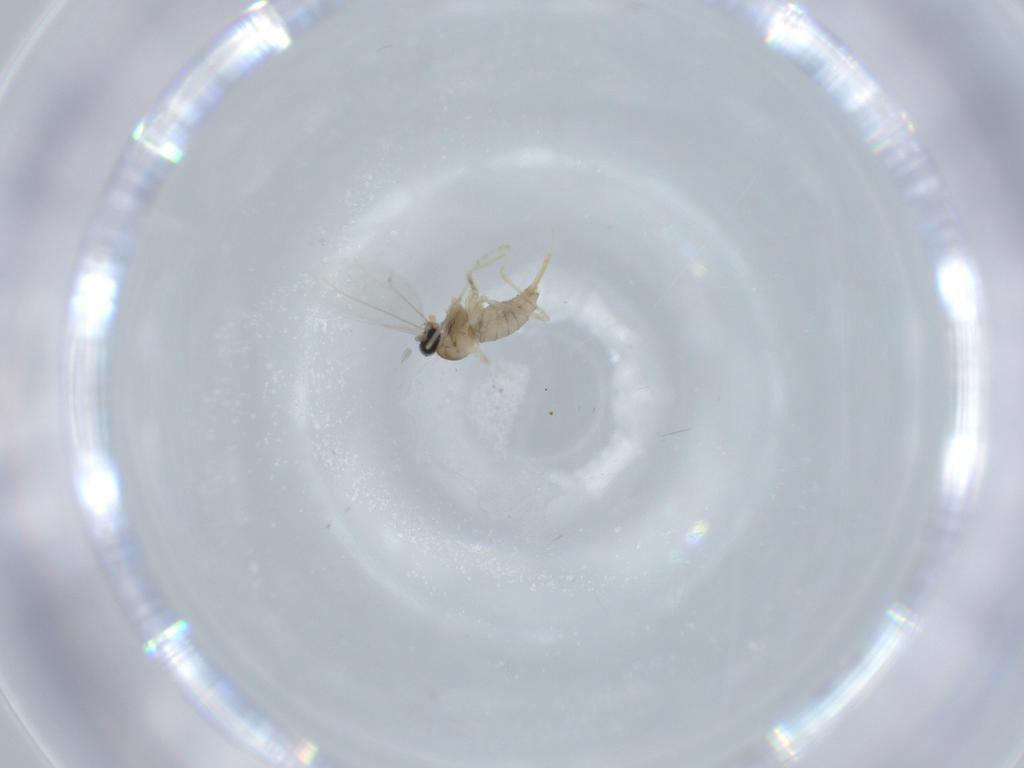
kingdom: Animalia
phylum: Arthropoda
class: Insecta
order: Diptera
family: Cecidomyiidae
